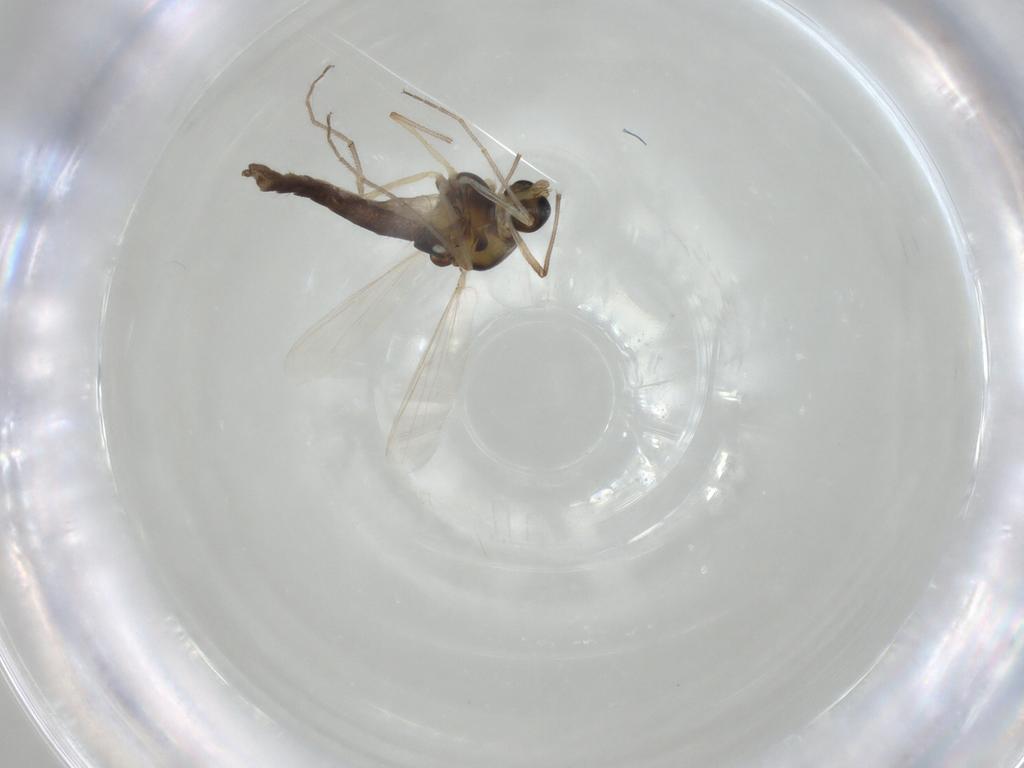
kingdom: Animalia
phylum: Arthropoda
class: Insecta
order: Diptera
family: Chironomidae
